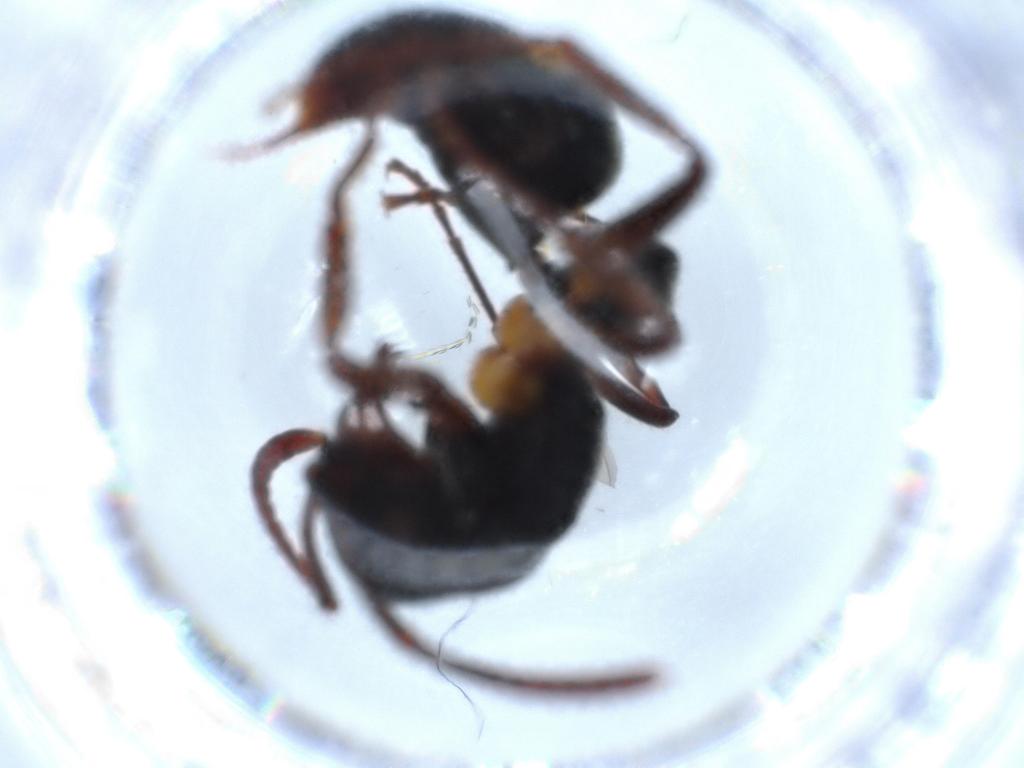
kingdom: Animalia
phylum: Arthropoda
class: Insecta
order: Hymenoptera
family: Formicidae
